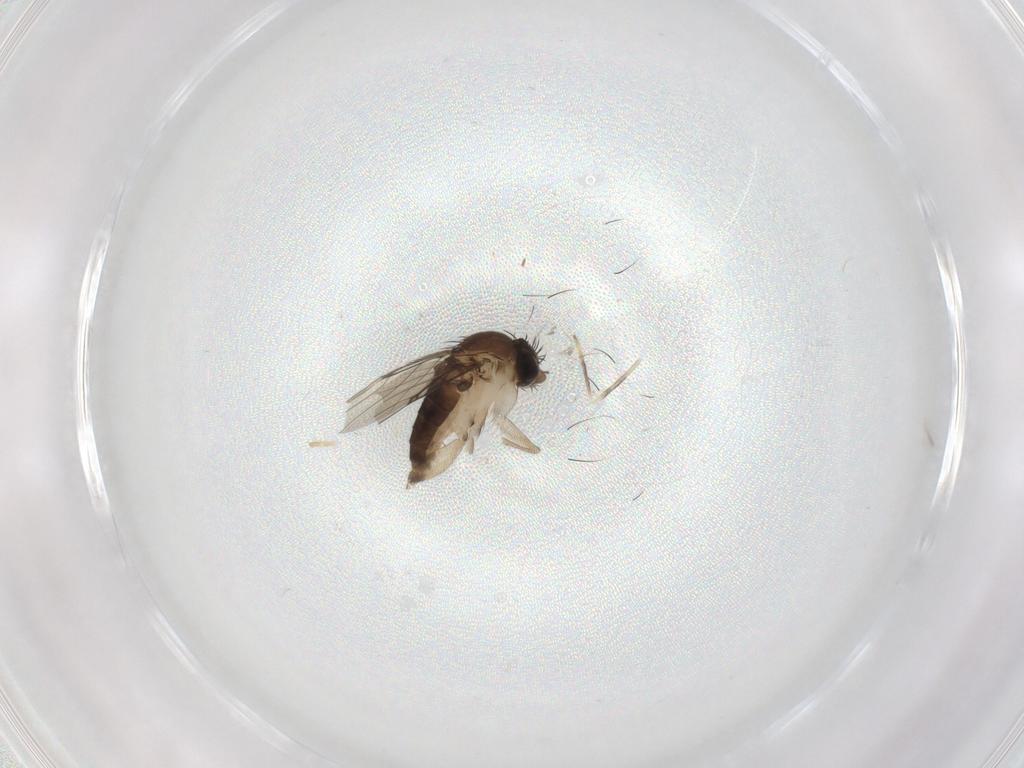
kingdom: Animalia
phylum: Arthropoda
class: Insecta
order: Diptera
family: Phoridae
